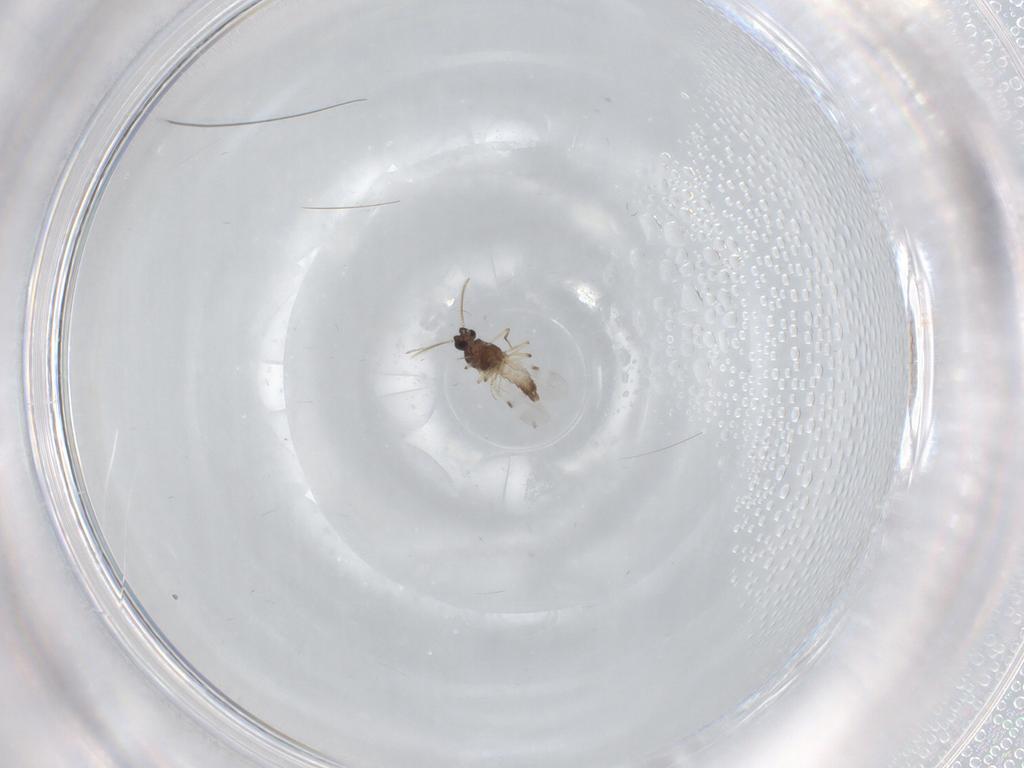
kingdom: Animalia
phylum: Arthropoda
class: Insecta
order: Diptera
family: Cecidomyiidae
